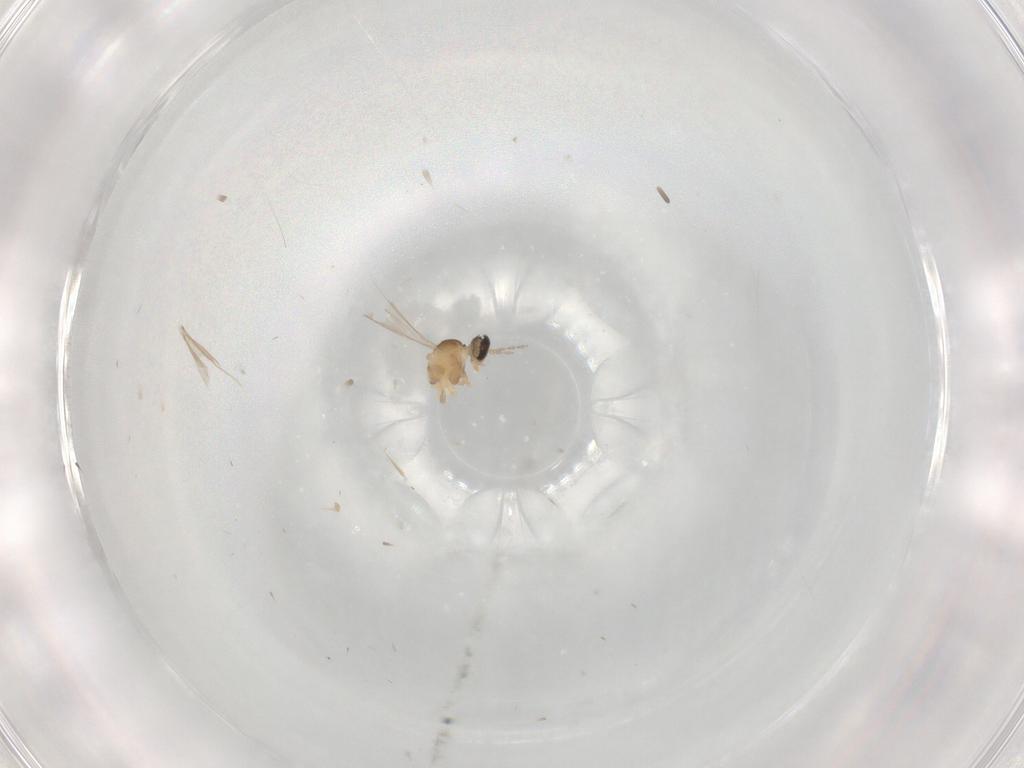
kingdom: Animalia
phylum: Arthropoda
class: Insecta
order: Diptera
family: Cecidomyiidae
